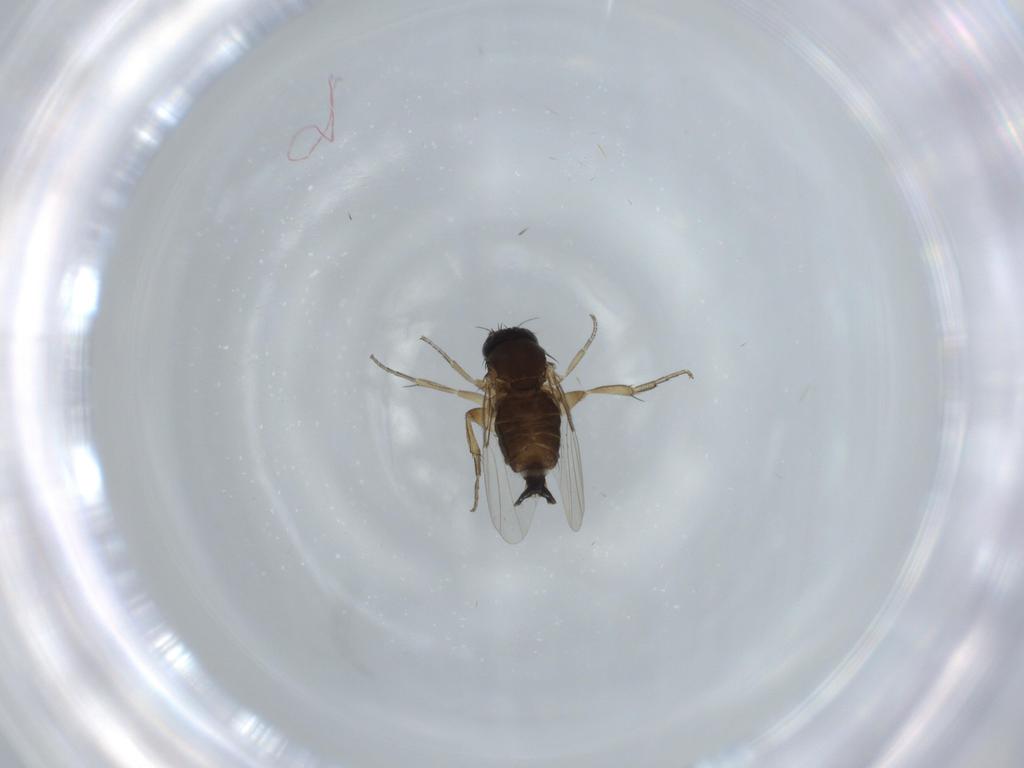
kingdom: Animalia
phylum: Arthropoda
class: Insecta
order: Diptera
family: Phoridae
